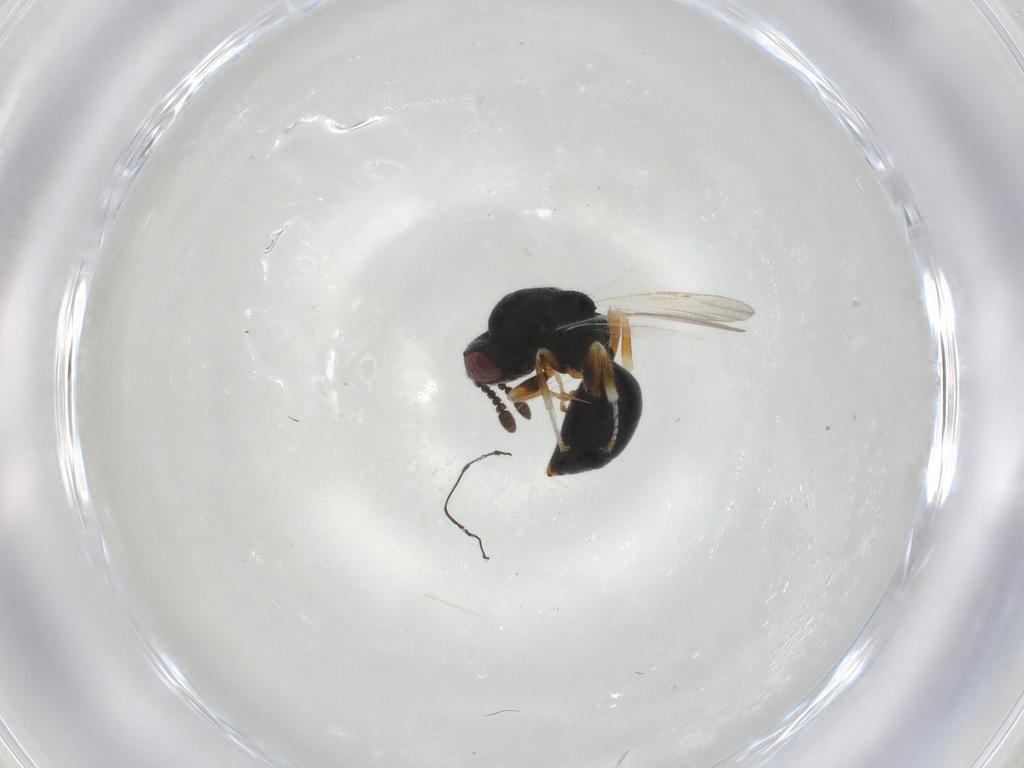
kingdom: Animalia
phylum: Arthropoda
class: Insecta
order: Hymenoptera
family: Eurytomidae
